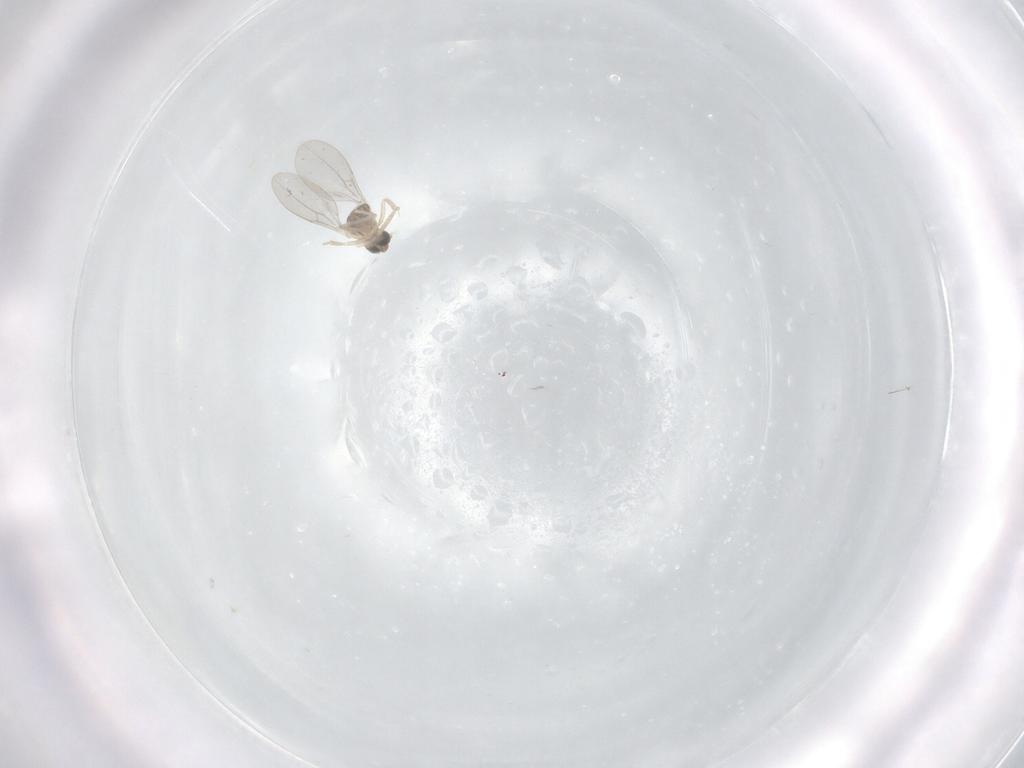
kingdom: Animalia
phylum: Arthropoda
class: Insecta
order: Diptera
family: Cecidomyiidae
